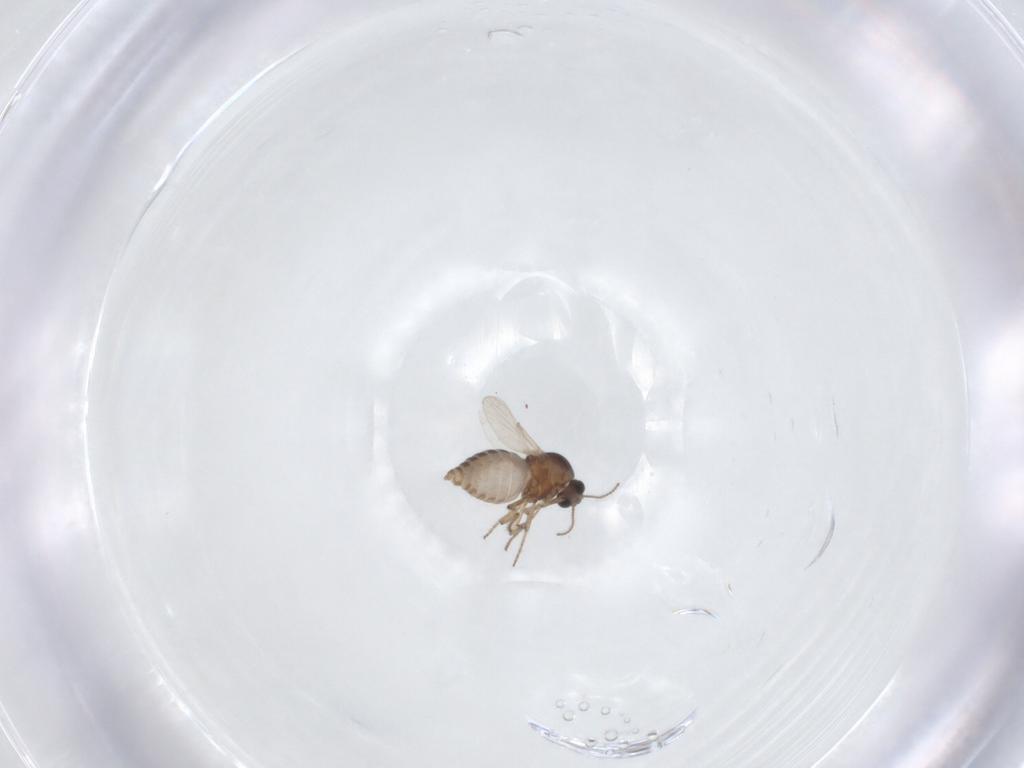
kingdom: Animalia
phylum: Arthropoda
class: Insecta
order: Diptera
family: Ceratopogonidae
